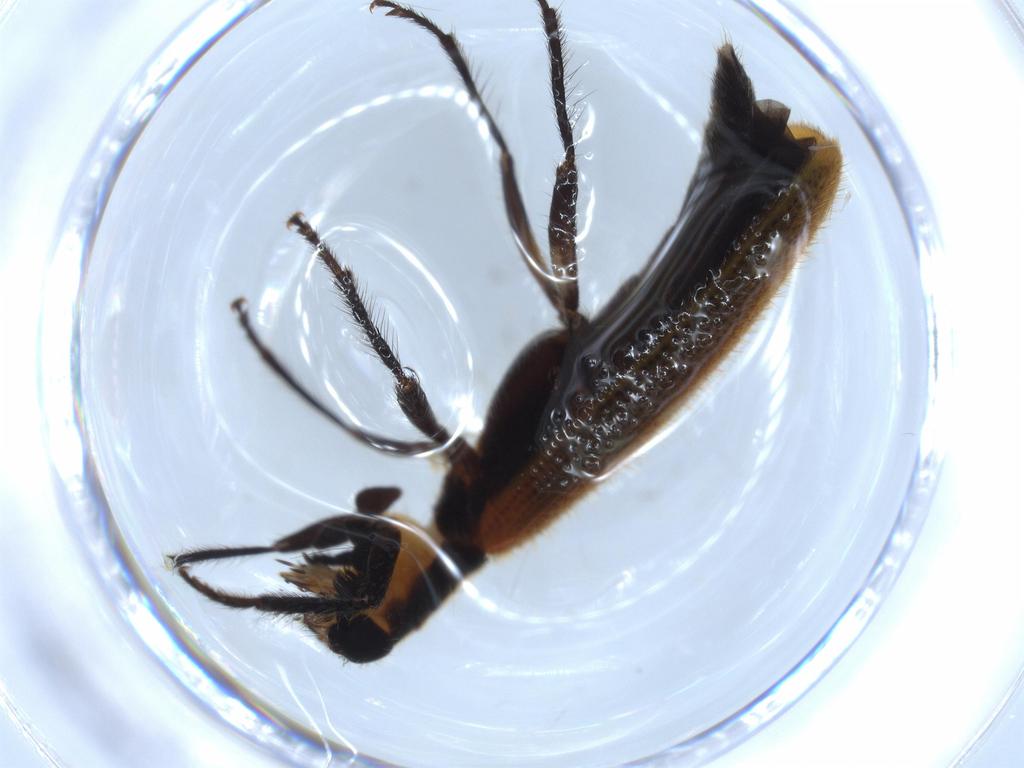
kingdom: Animalia
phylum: Arthropoda
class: Insecta
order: Coleoptera
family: Cleridae
